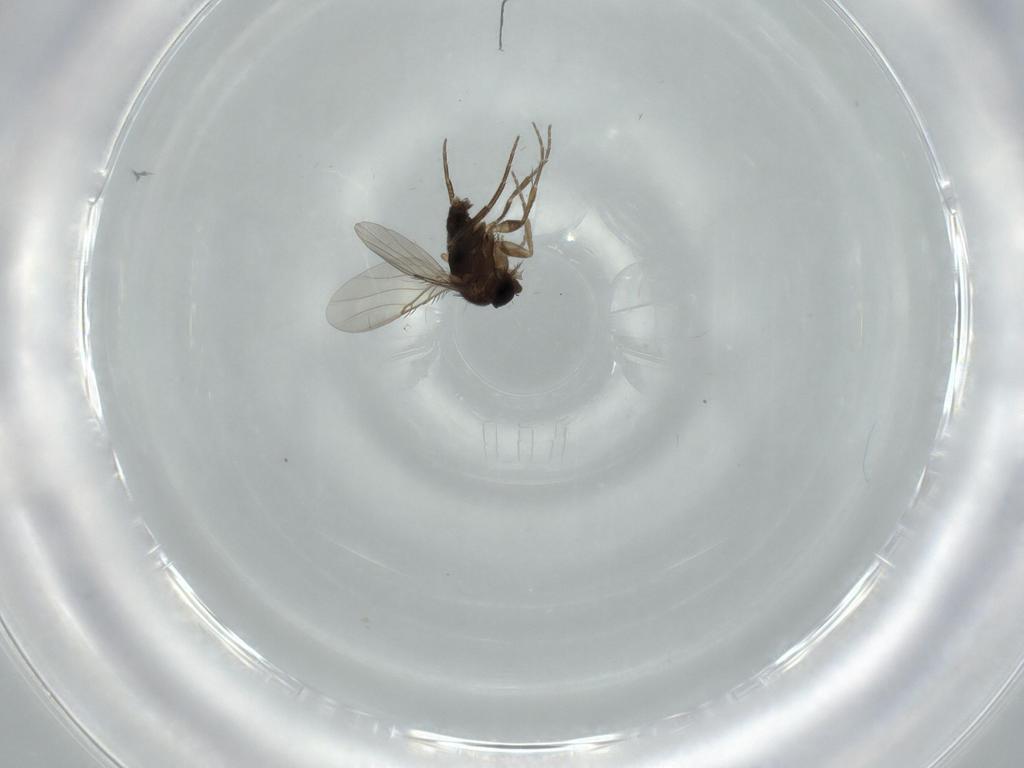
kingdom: Animalia
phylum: Arthropoda
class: Insecta
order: Diptera
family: Phoridae
